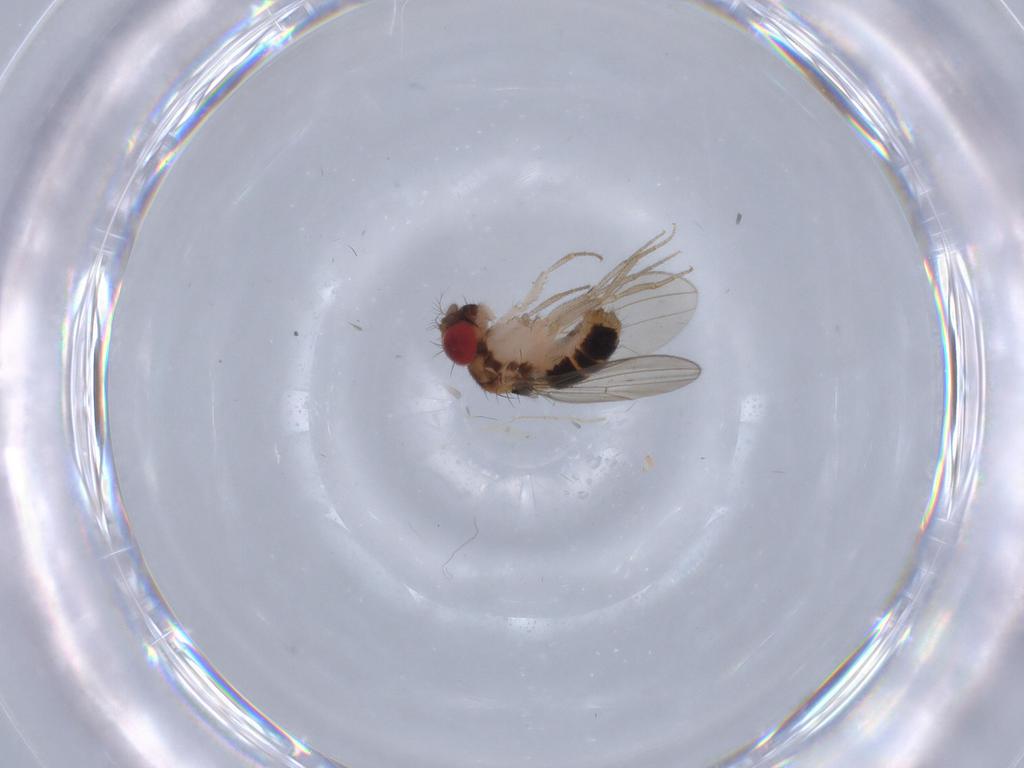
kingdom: Animalia
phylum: Arthropoda
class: Insecta
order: Diptera
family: Drosophilidae
